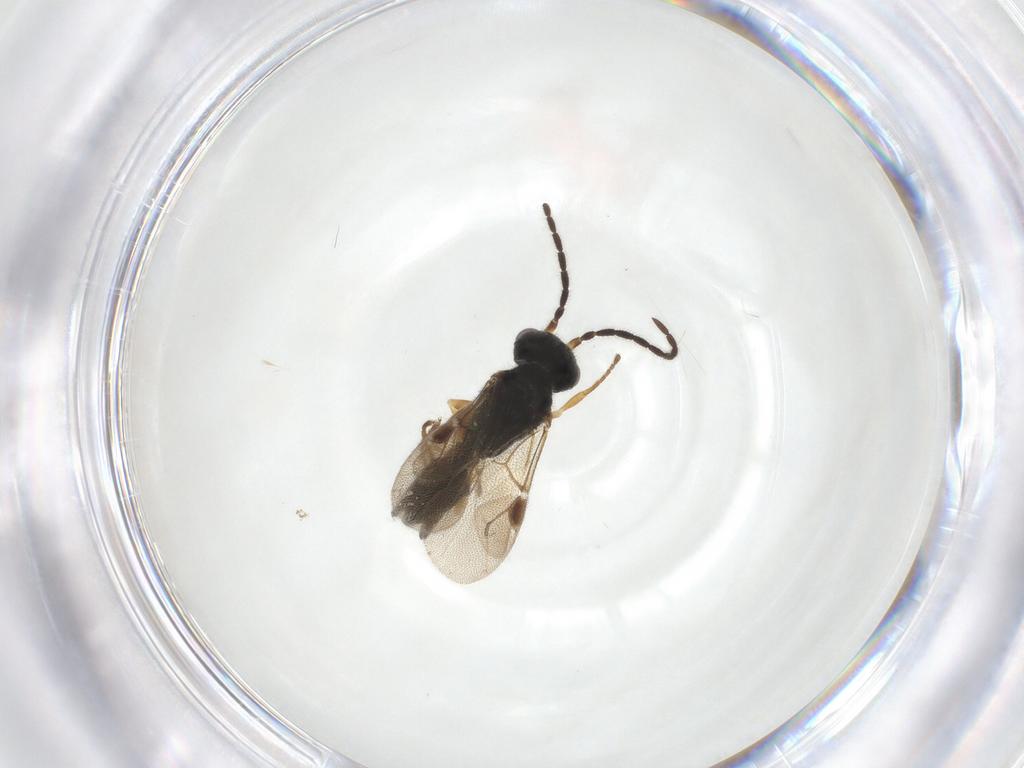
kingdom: Animalia
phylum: Arthropoda
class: Insecta
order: Hymenoptera
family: Dryinidae
